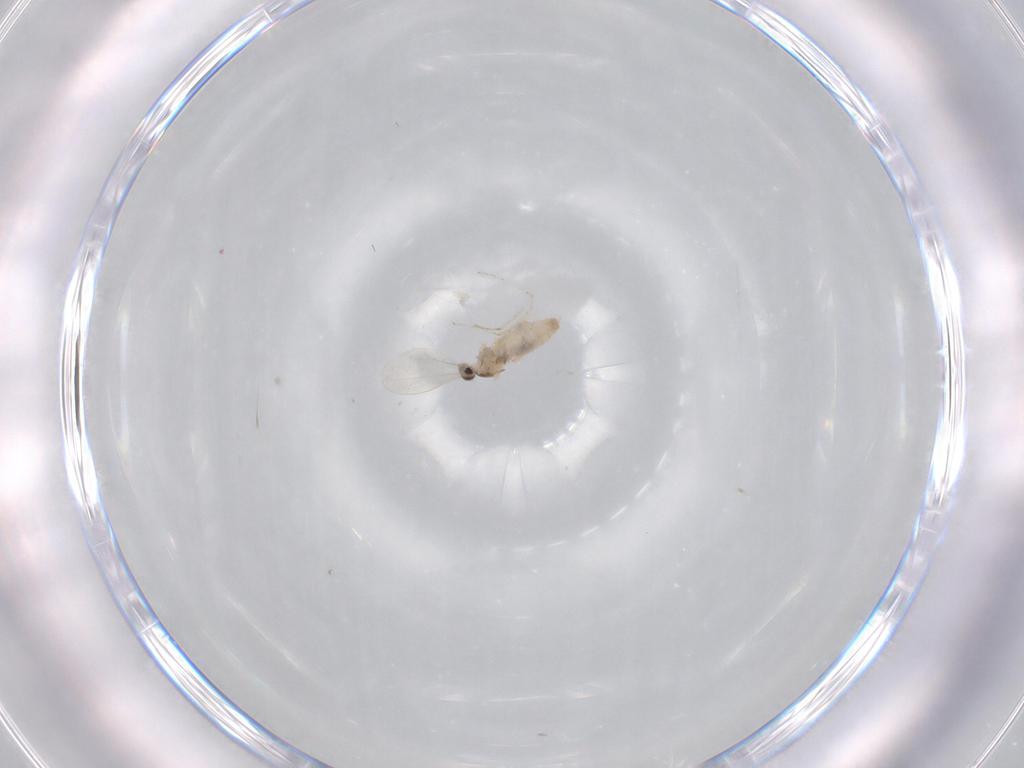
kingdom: Animalia
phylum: Arthropoda
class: Insecta
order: Diptera
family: Cecidomyiidae
